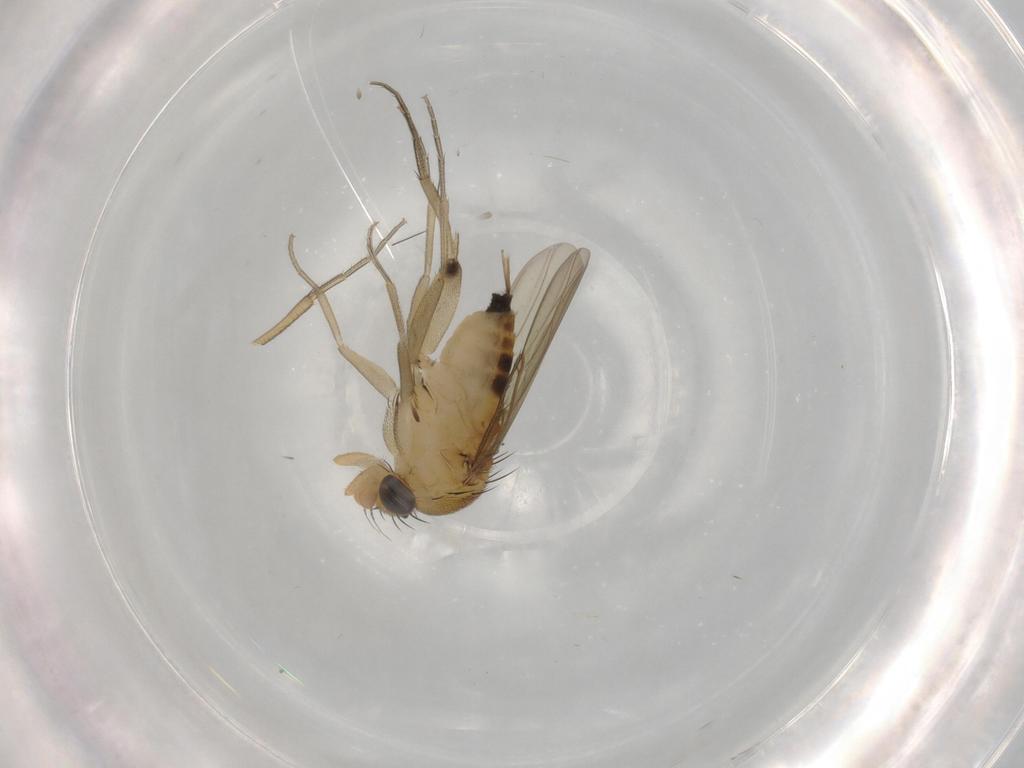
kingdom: Animalia
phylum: Arthropoda
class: Insecta
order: Diptera
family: Phoridae
